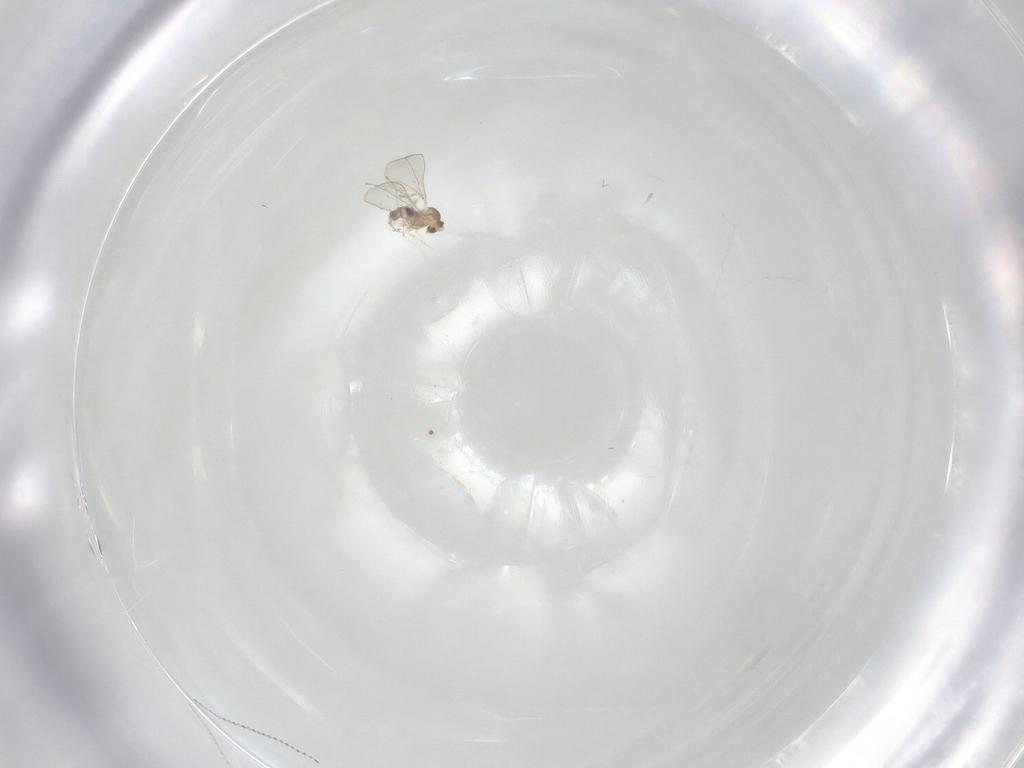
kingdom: Animalia
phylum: Arthropoda
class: Insecta
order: Diptera
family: Cecidomyiidae
